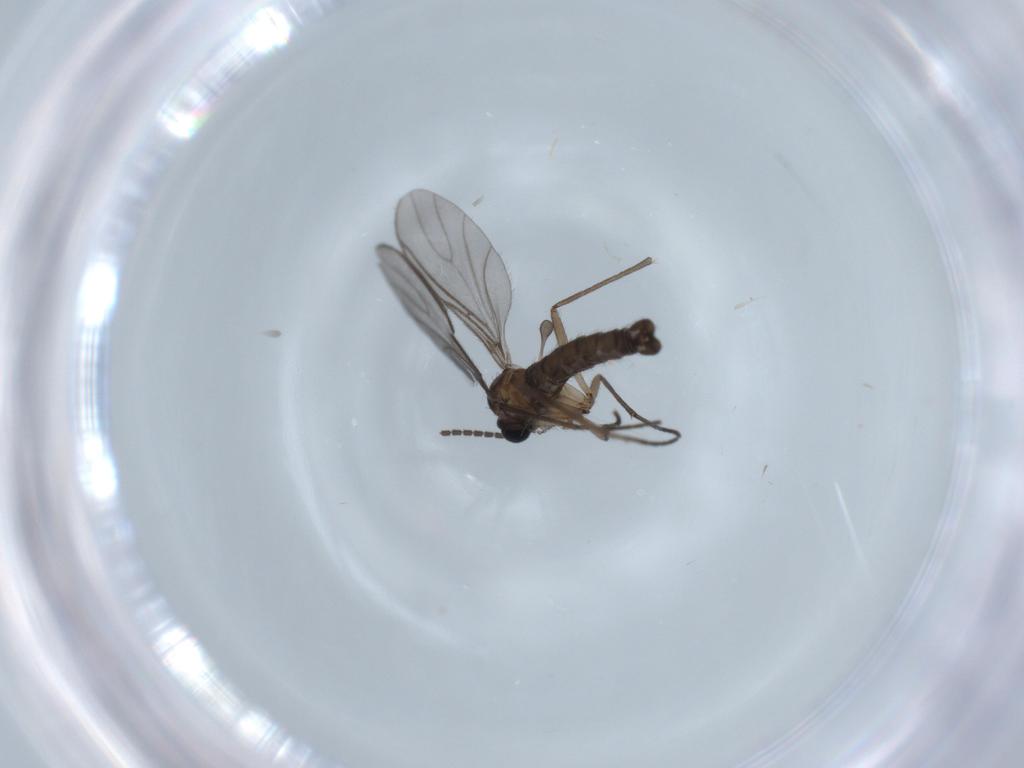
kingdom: Animalia
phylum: Arthropoda
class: Insecta
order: Diptera
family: Sciaridae
